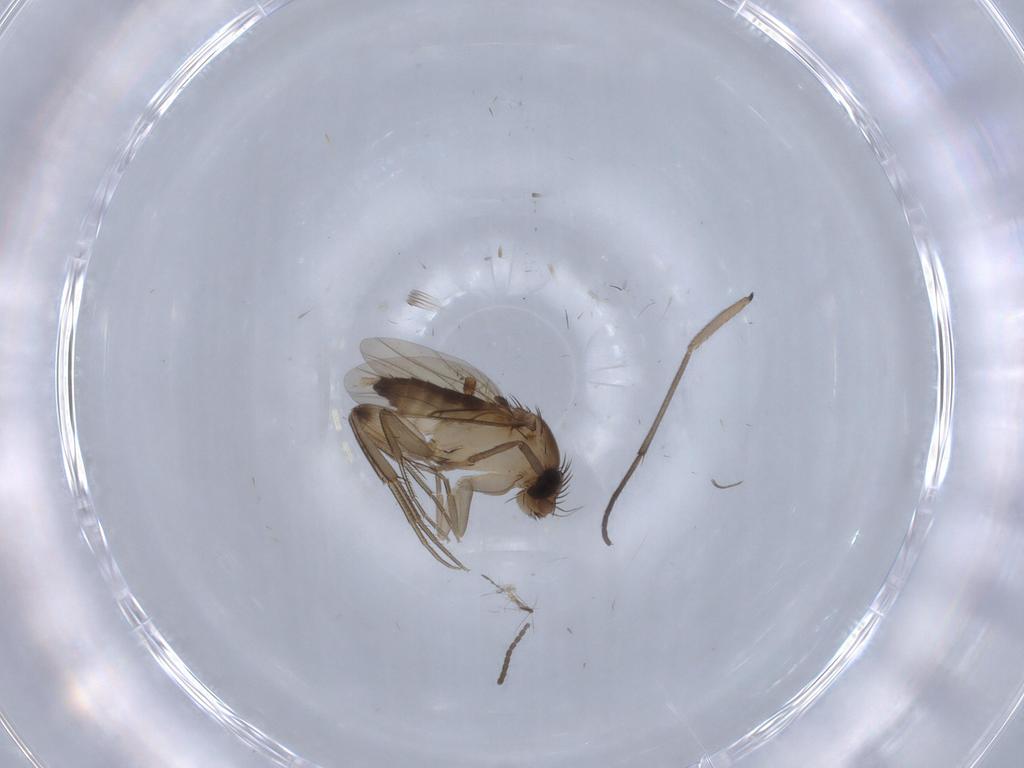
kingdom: Animalia
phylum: Arthropoda
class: Insecta
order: Diptera
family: Sciaridae
